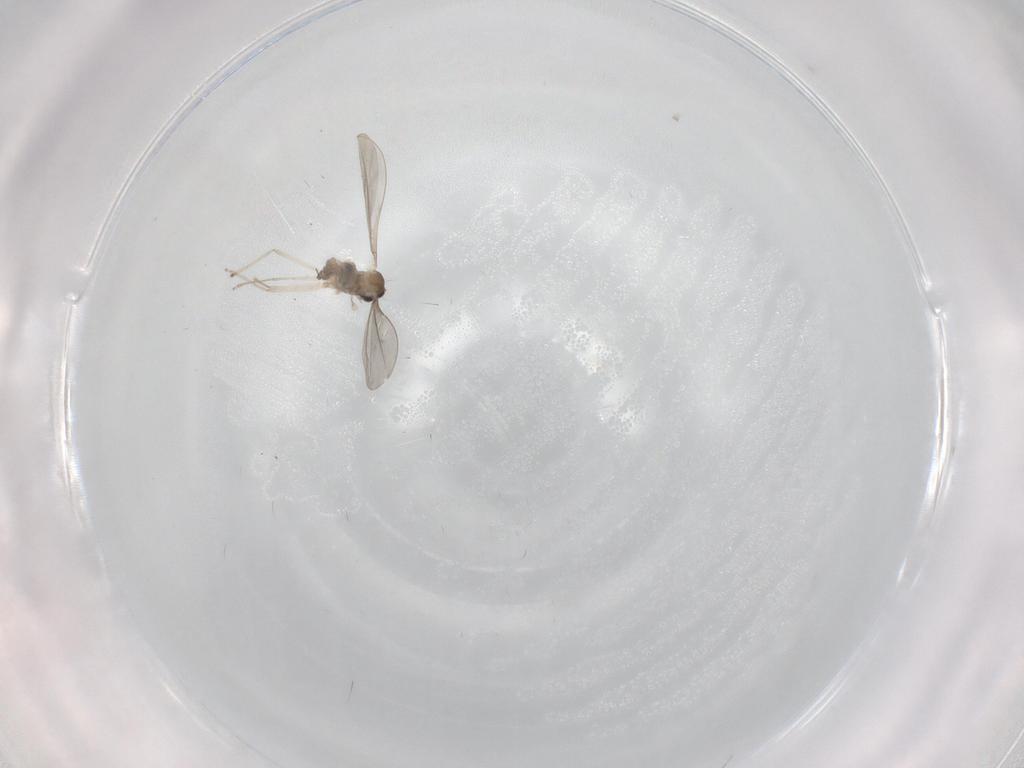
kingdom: Animalia
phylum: Arthropoda
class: Insecta
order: Diptera
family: Cecidomyiidae
